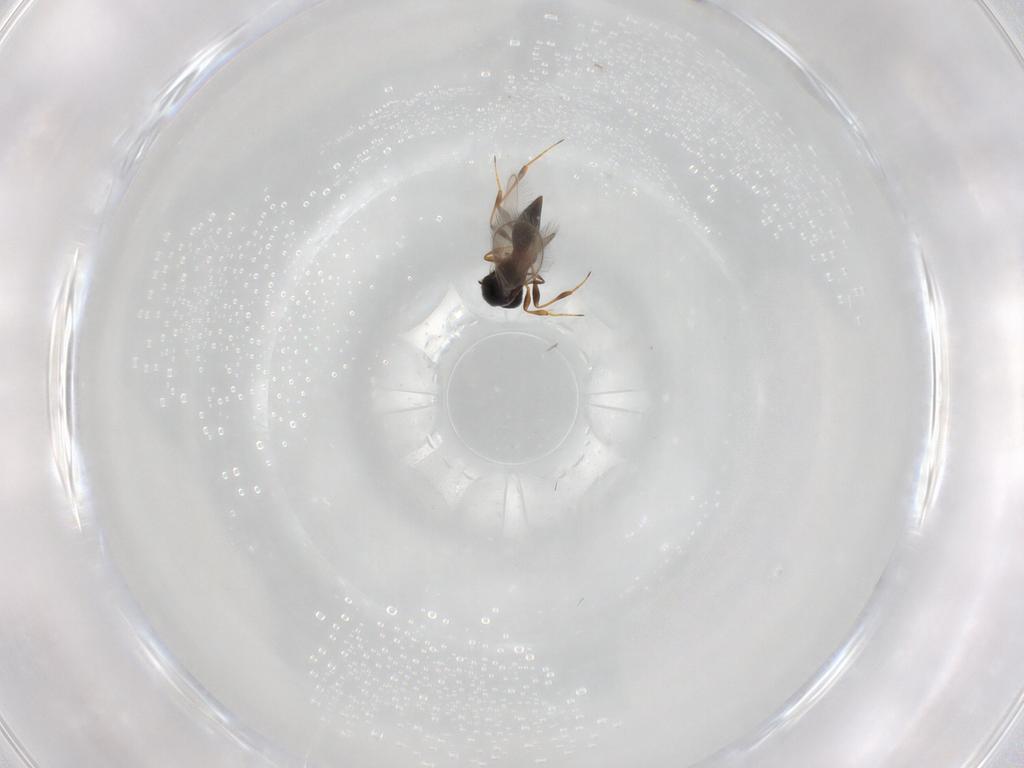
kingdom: Animalia
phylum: Arthropoda
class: Insecta
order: Hymenoptera
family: Platygastridae
